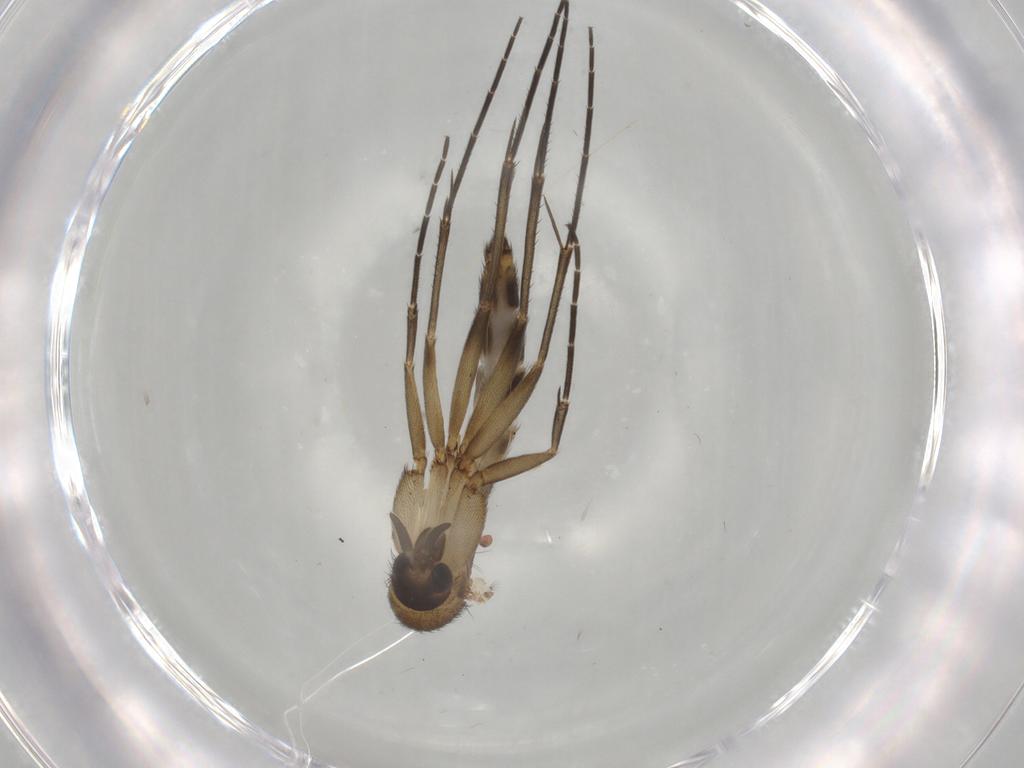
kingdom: Animalia
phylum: Arthropoda
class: Insecta
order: Diptera
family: Mycetophilidae
